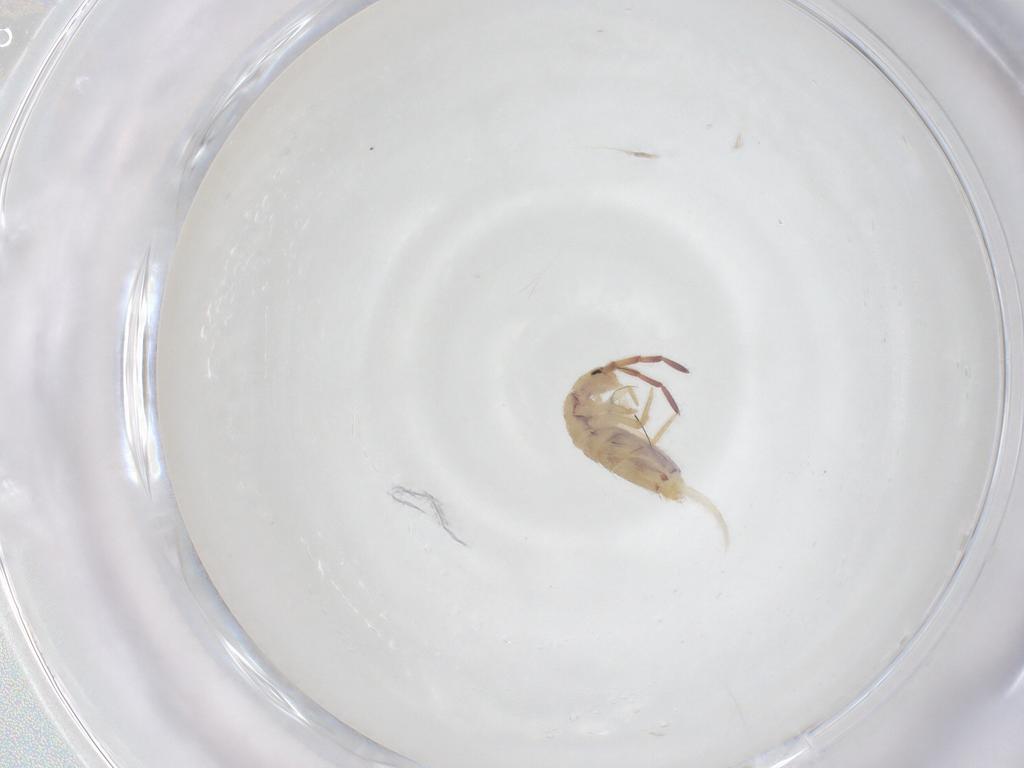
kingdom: Animalia
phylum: Arthropoda
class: Collembola
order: Entomobryomorpha
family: Entomobryidae
